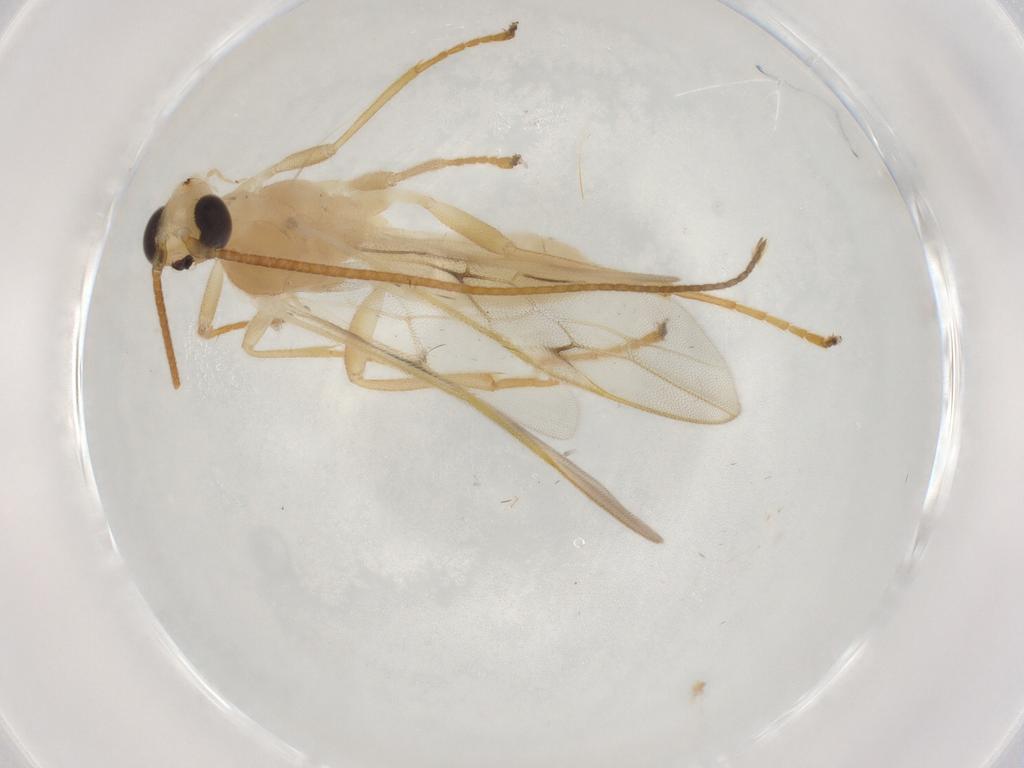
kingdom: Animalia
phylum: Arthropoda
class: Insecta
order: Hymenoptera
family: Braconidae
